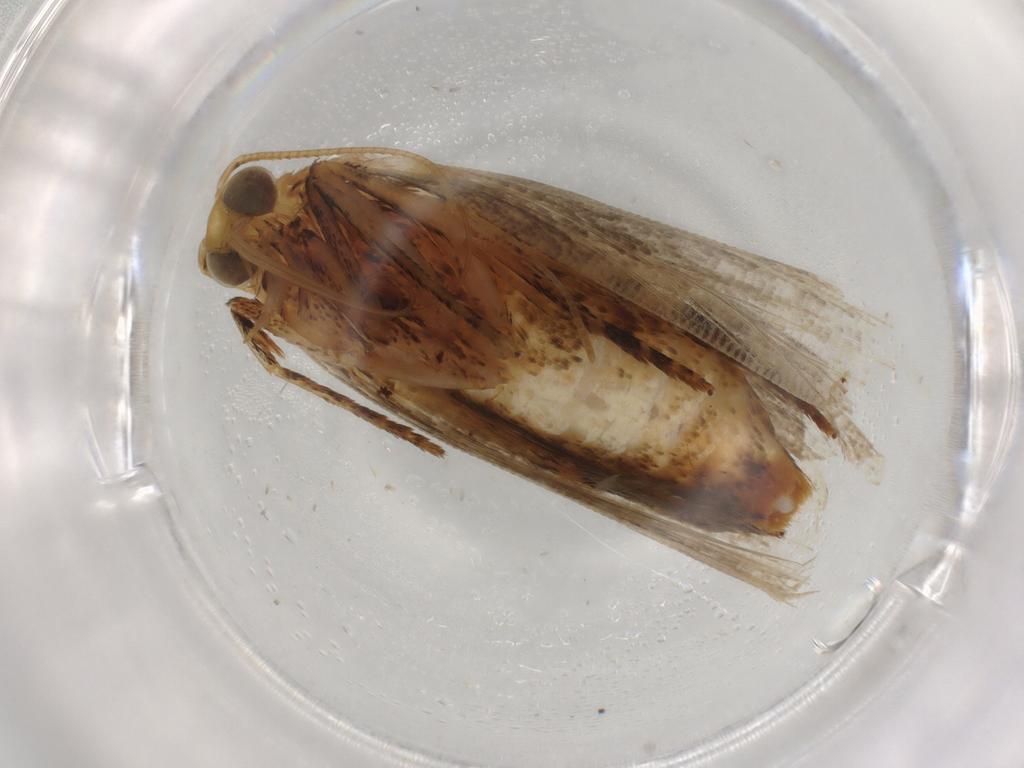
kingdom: Animalia
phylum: Arthropoda
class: Insecta
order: Lepidoptera
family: Pyralidae
